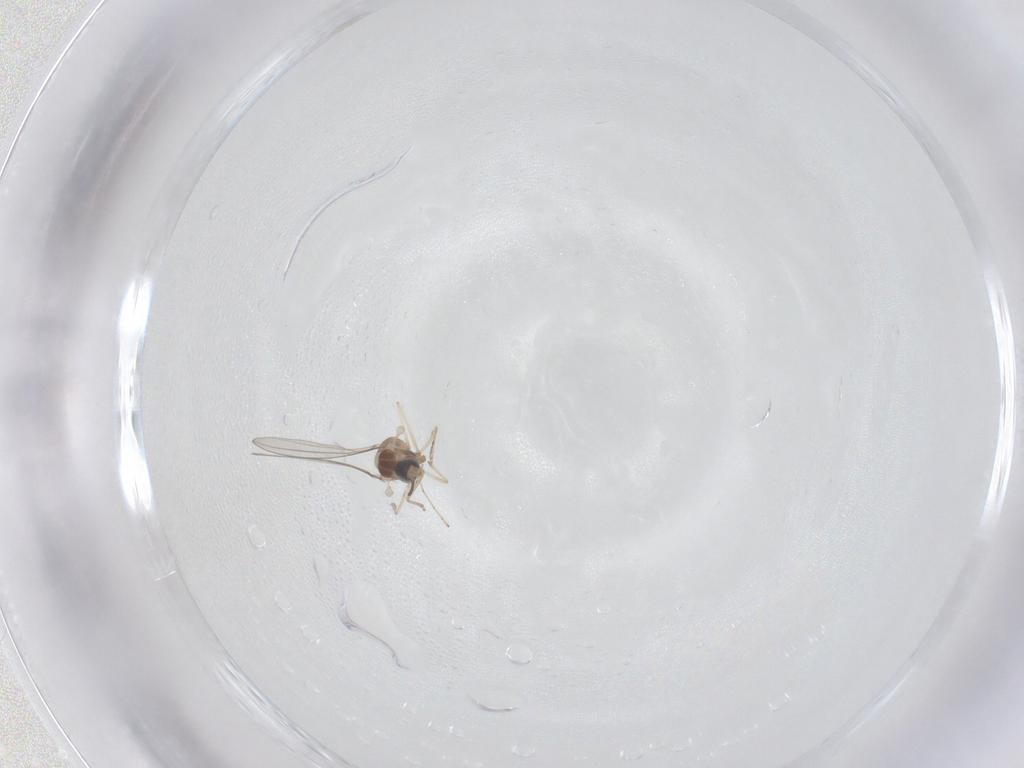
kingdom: Animalia
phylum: Arthropoda
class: Insecta
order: Diptera
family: Cecidomyiidae
